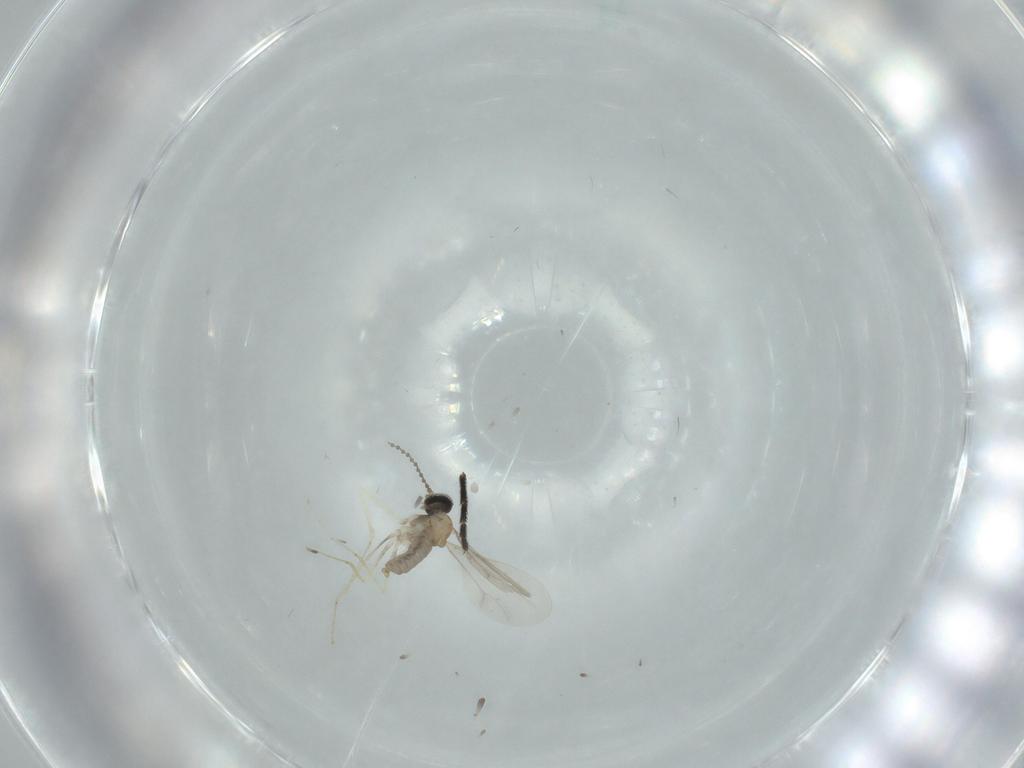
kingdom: Animalia
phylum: Arthropoda
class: Insecta
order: Diptera
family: Cecidomyiidae
